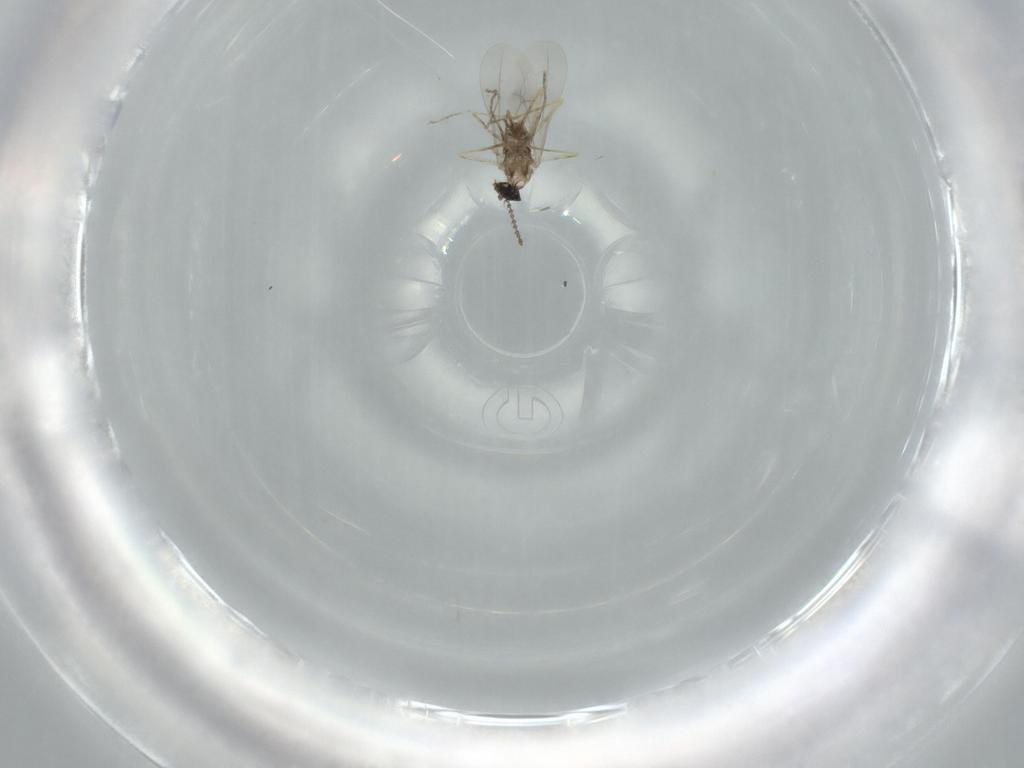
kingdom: Animalia
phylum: Arthropoda
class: Insecta
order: Diptera
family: Cecidomyiidae
